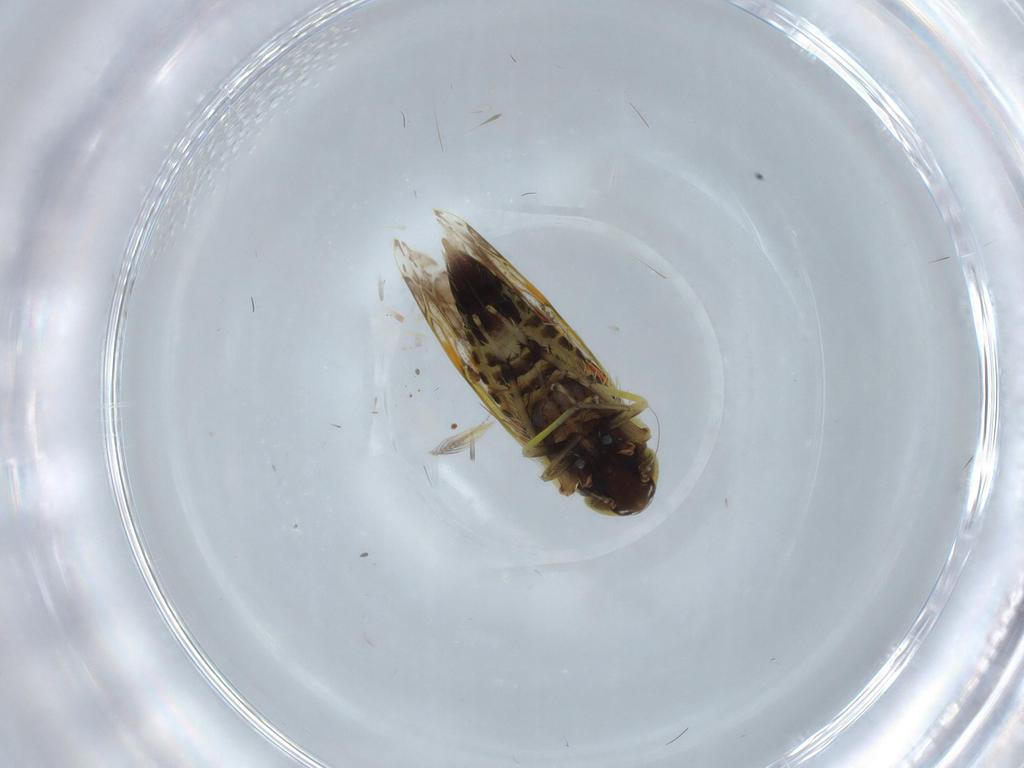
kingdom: Animalia
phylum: Arthropoda
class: Insecta
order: Hemiptera
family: Cicadellidae
